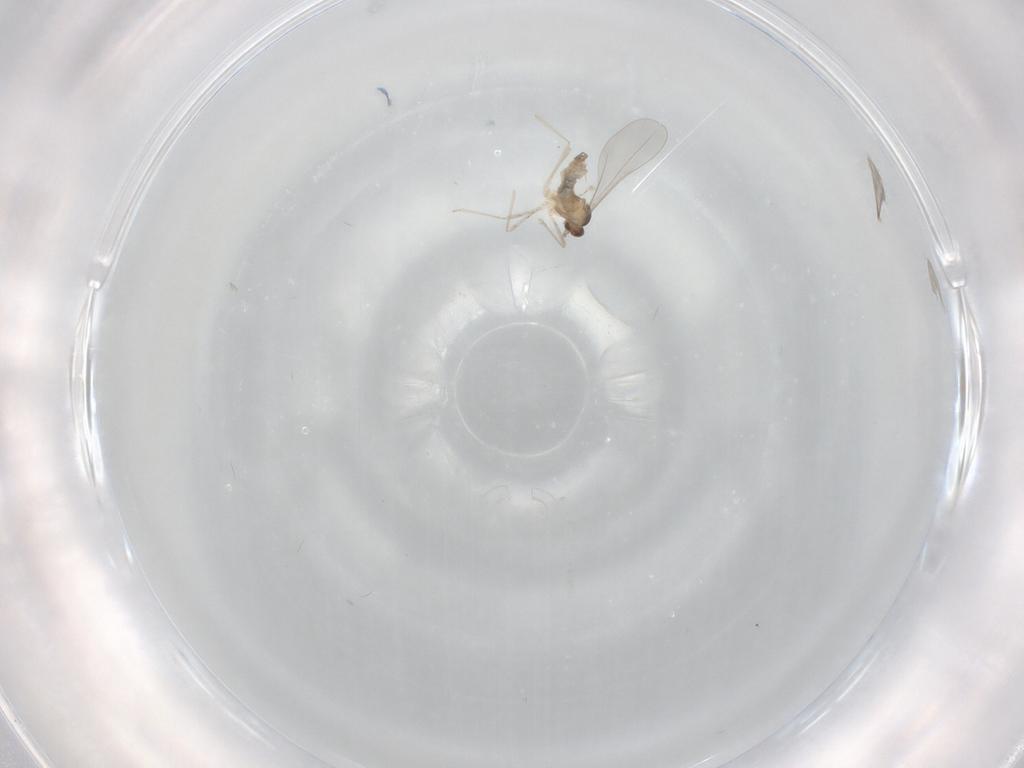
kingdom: Animalia
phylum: Arthropoda
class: Insecta
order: Diptera
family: Cecidomyiidae
